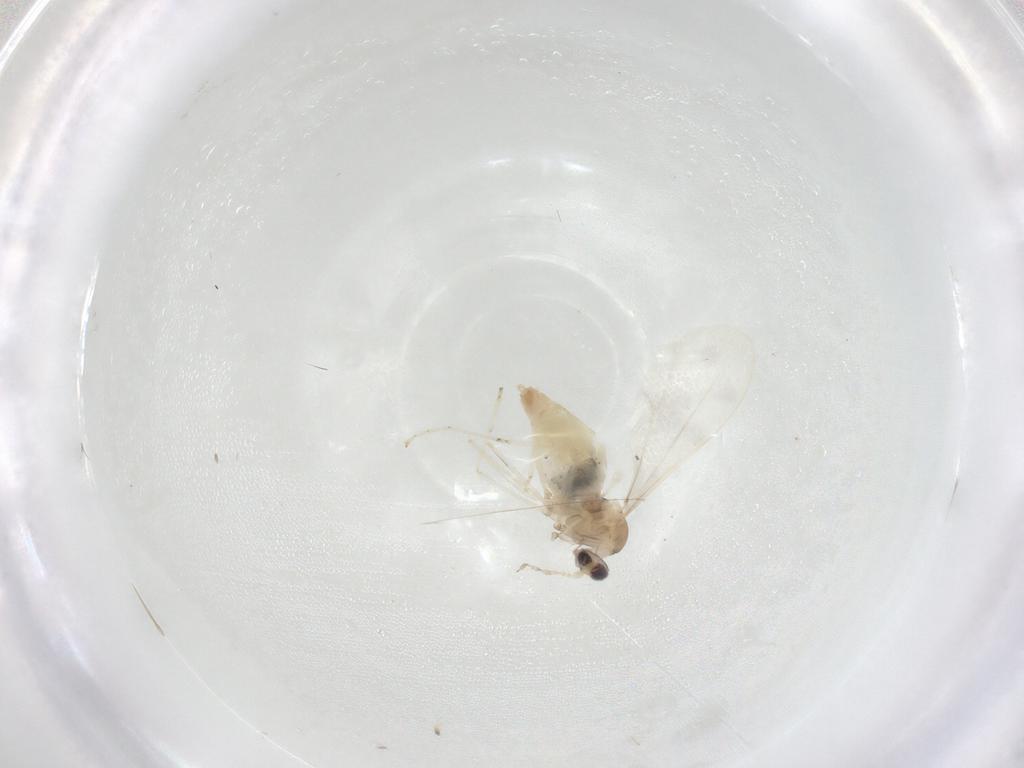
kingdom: Animalia
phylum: Arthropoda
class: Insecta
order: Diptera
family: Cecidomyiidae
